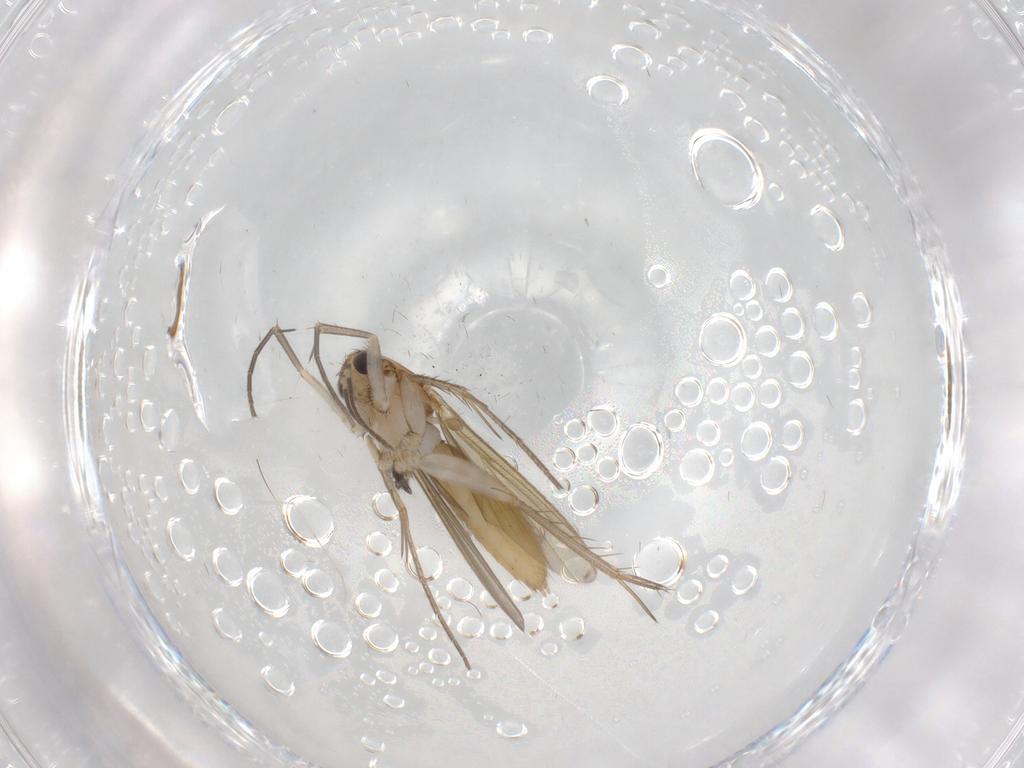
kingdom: Animalia
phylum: Arthropoda
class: Insecta
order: Diptera
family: Mycetophilidae
